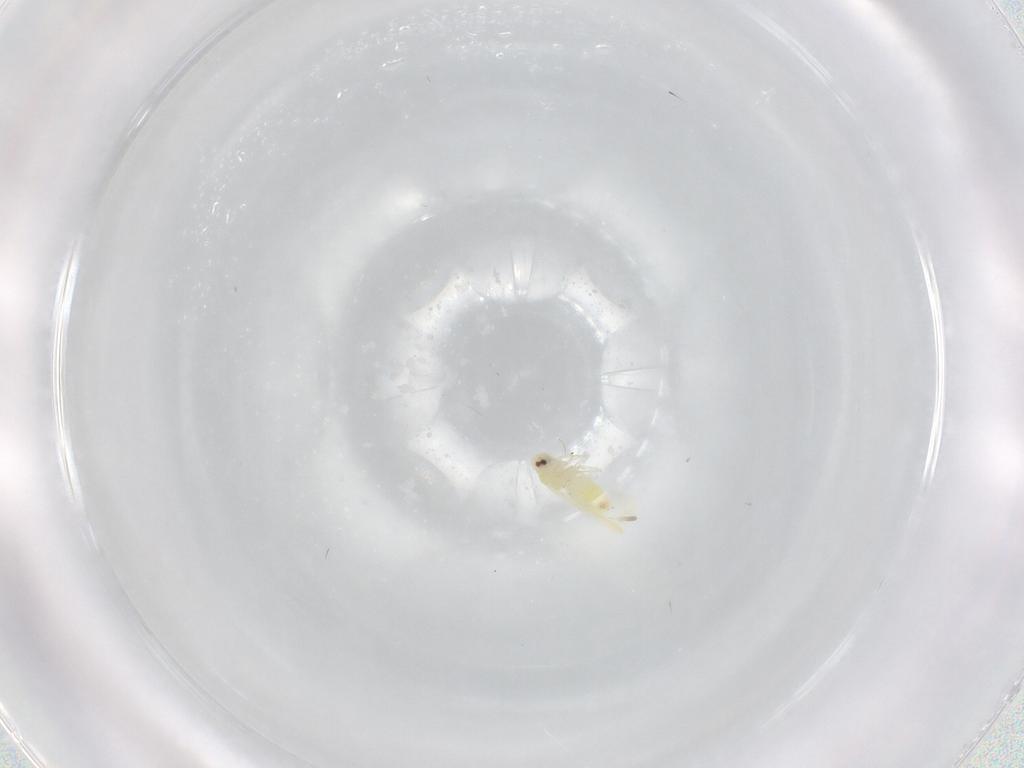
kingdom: Animalia
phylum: Arthropoda
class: Insecta
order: Hemiptera
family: Aleyrodidae
